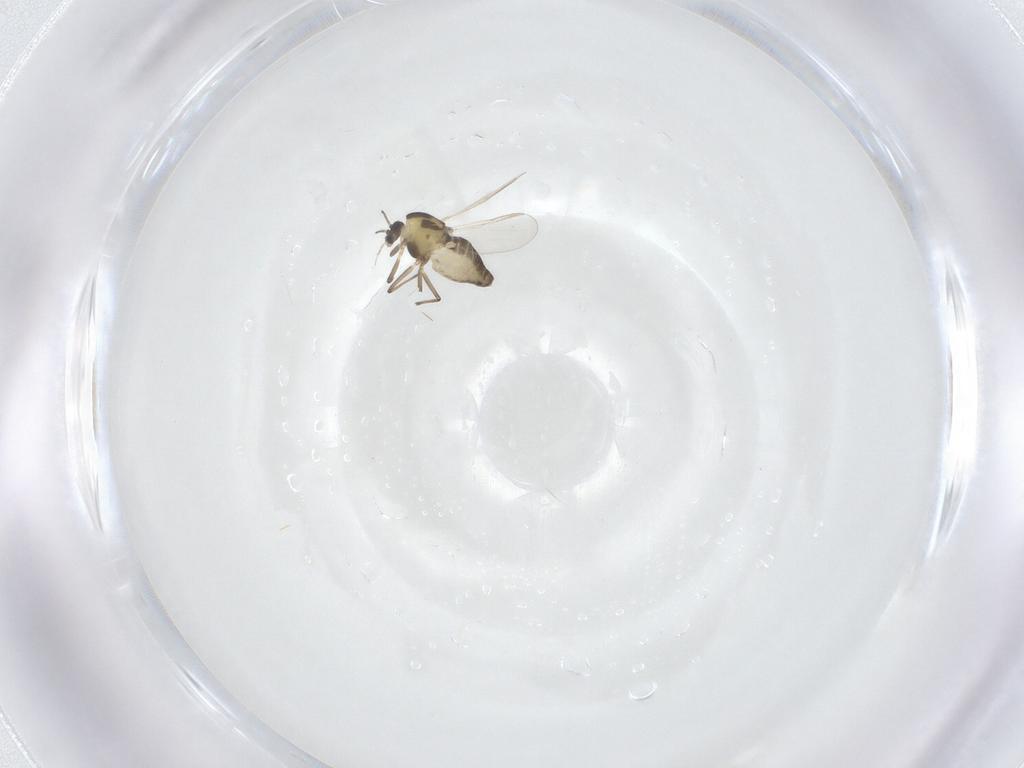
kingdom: Animalia
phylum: Arthropoda
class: Insecta
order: Diptera
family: Chironomidae
